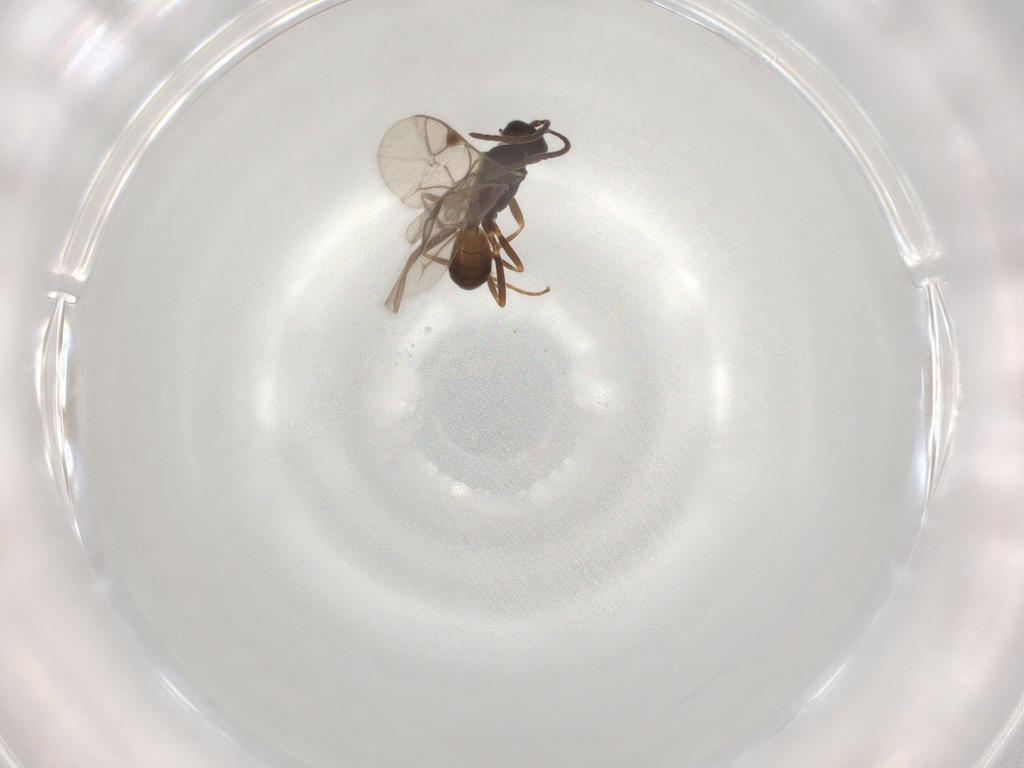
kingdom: Animalia
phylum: Arthropoda
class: Insecta
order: Hymenoptera
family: Ichneumonidae
